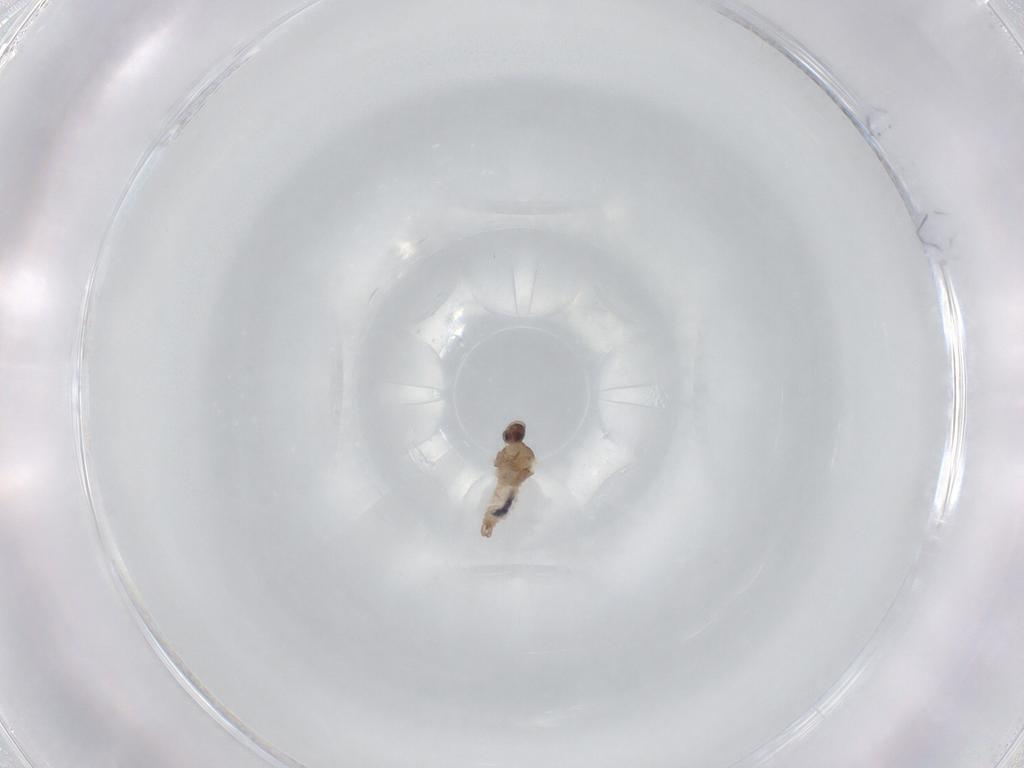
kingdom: Animalia
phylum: Arthropoda
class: Insecta
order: Diptera
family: Culicidae
